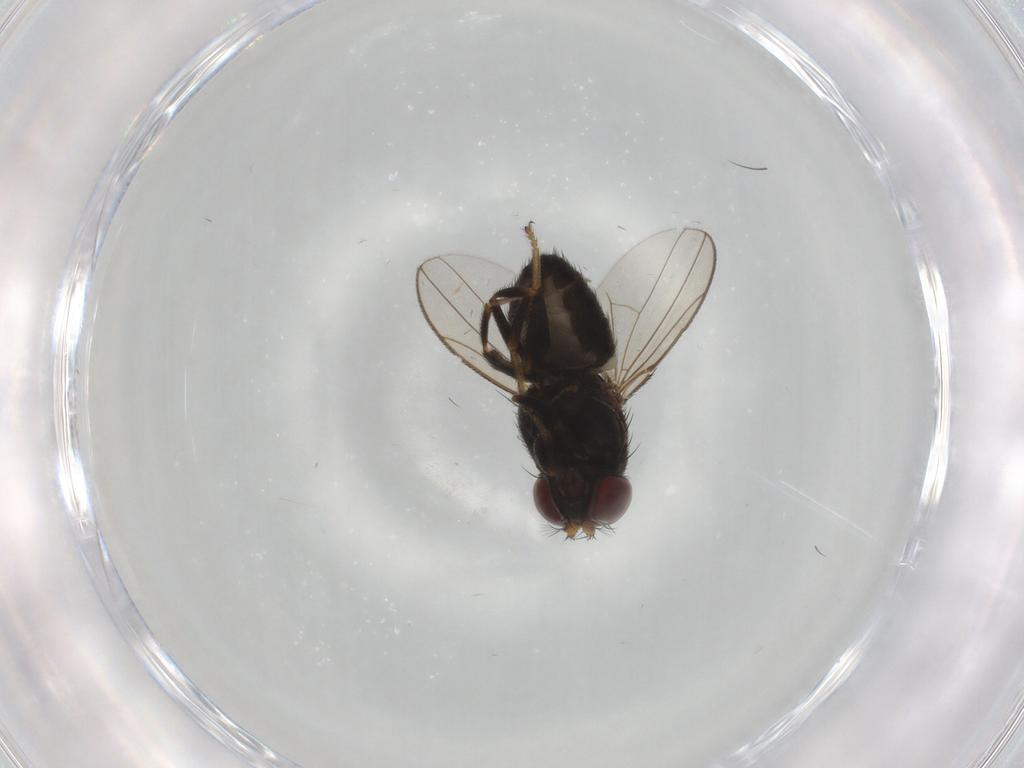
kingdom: Animalia
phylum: Arthropoda
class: Insecta
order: Diptera
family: Ephydridae
